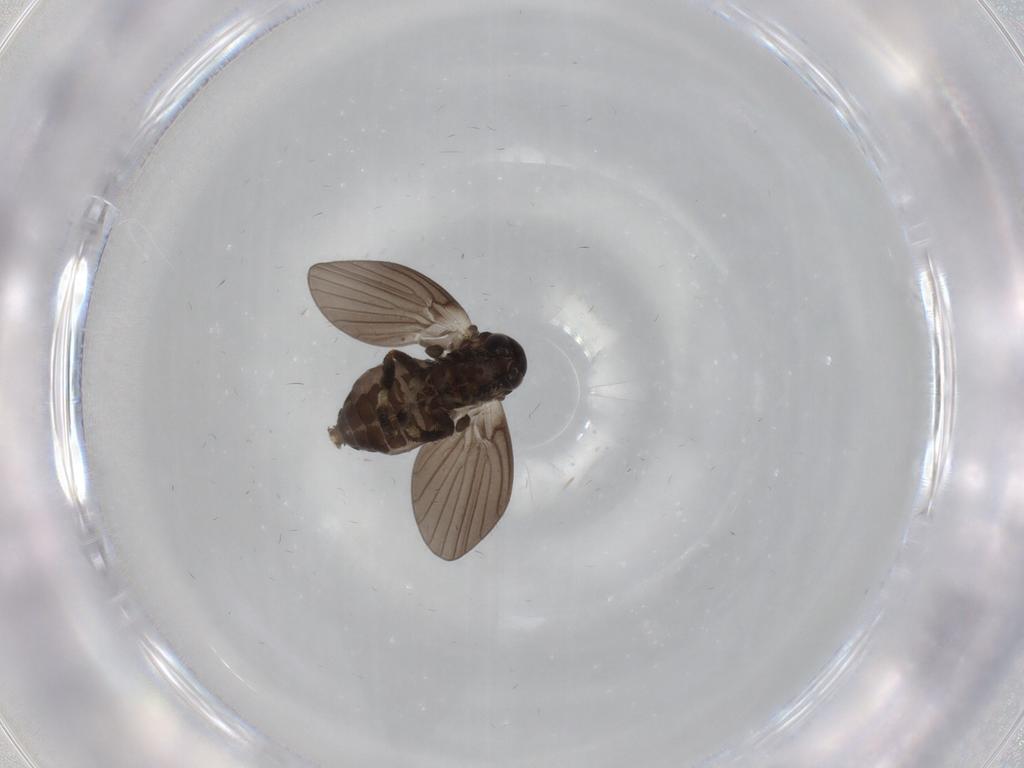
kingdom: Animalia
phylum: Arthropoda
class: Insecta
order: Diptera
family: Psychodidae
